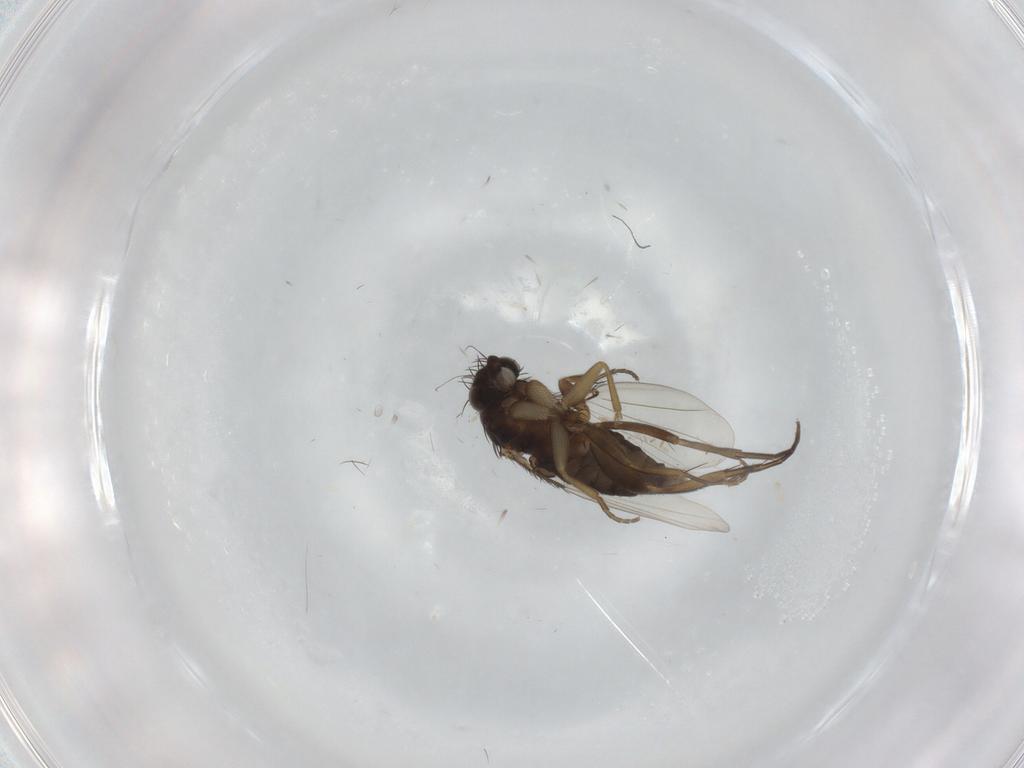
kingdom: Animalia
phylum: Arthropoda
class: Insecta
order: Diptera
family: Phoridae
